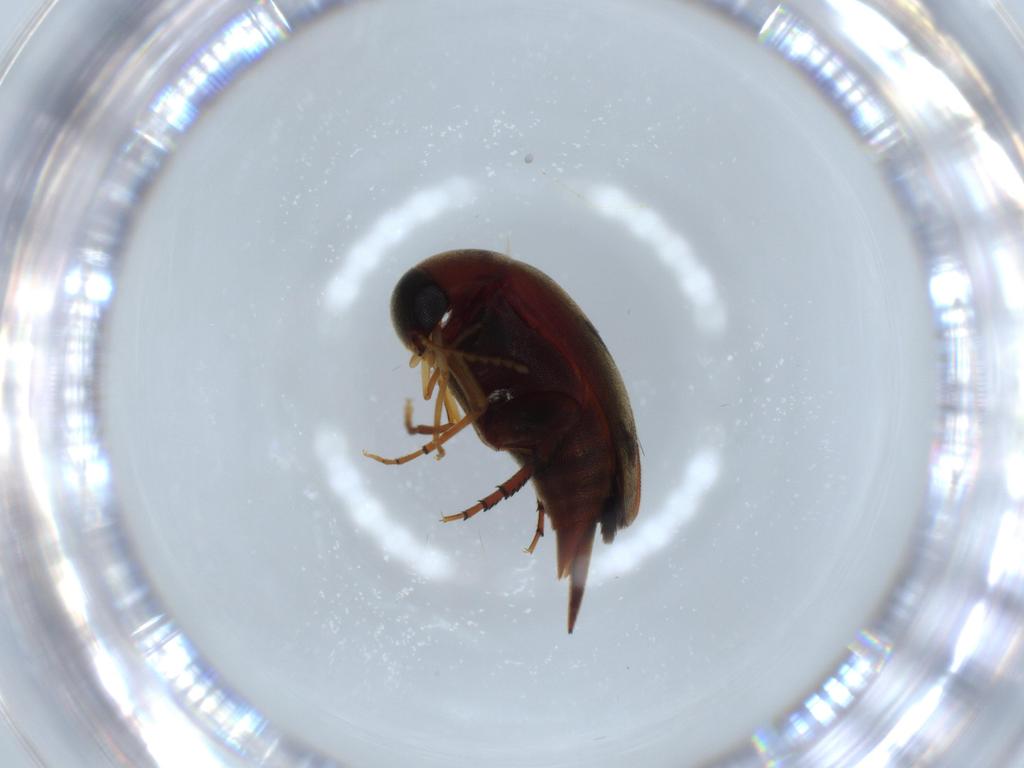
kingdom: Animalia
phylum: Arthropoda
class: Insecta
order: Coleoptera
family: Mordellidae
